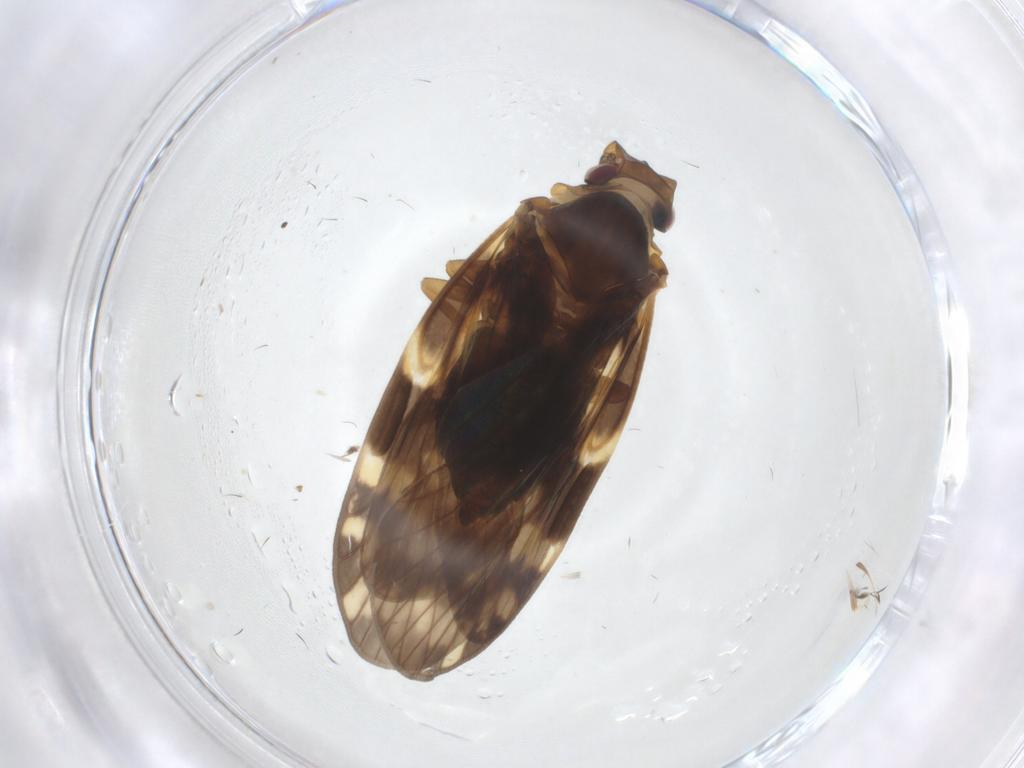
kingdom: Animalia
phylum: Arthropoda
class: Insecta
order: Hemiptera
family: Cixiidae
